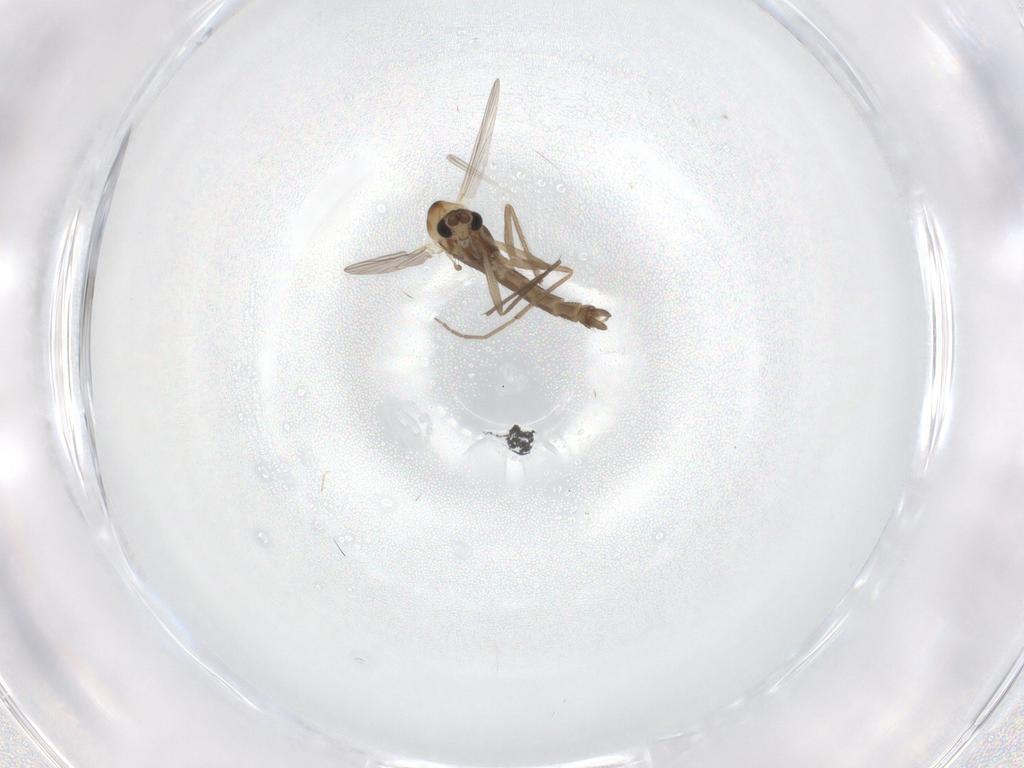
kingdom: Animalia
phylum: Arthropoda
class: Insecta
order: Diptera
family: Chironomidae
